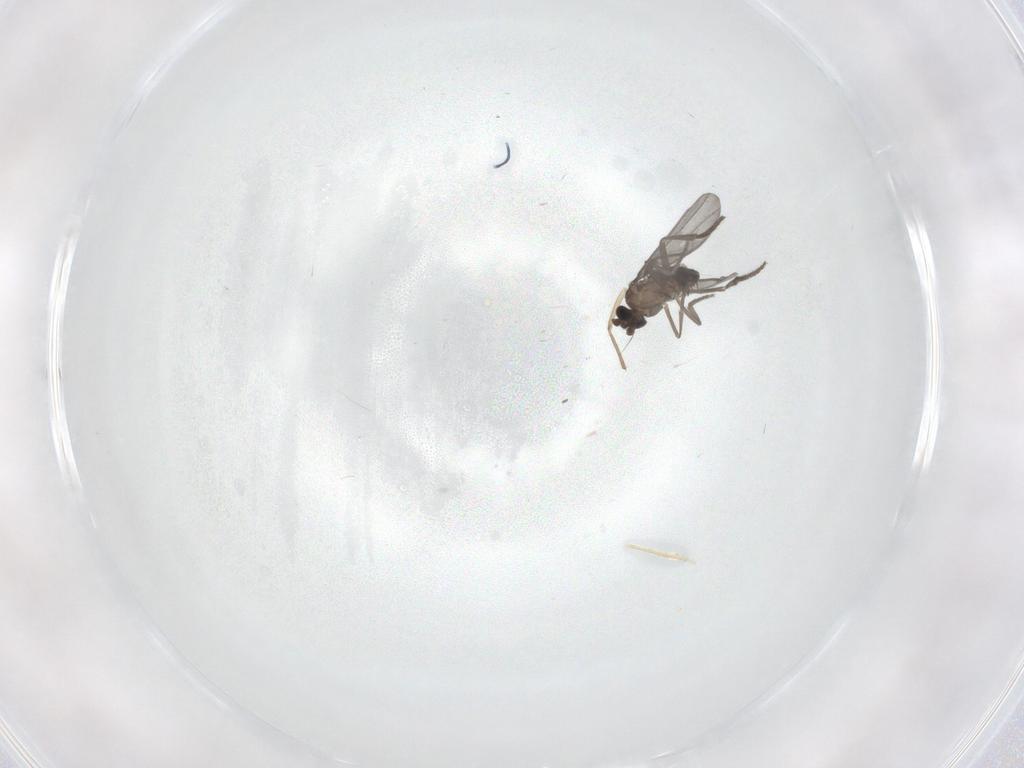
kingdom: Animalia
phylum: Arthropoda
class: Insecta
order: Diptera
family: Phoridae
